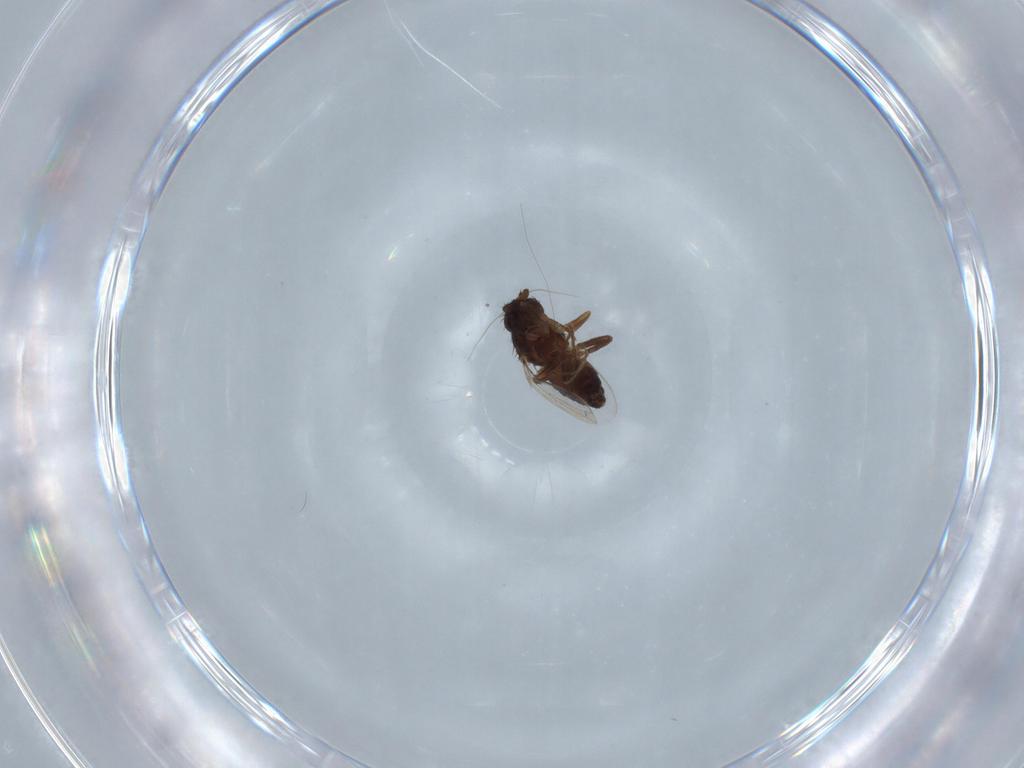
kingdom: Animalia
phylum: Arthropoda
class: Insecta
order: Diptera
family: Sphaeroceridae
